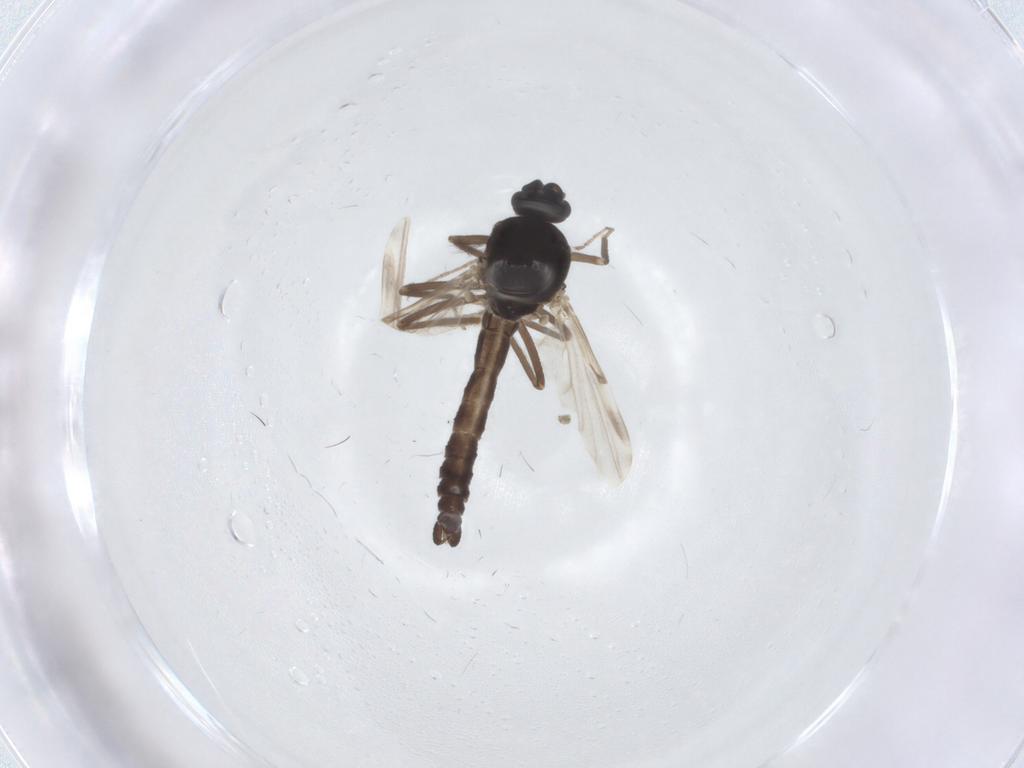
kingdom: Animalia
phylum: Arthropoda
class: Insecta
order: Diptera
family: Ceratopogonidae
